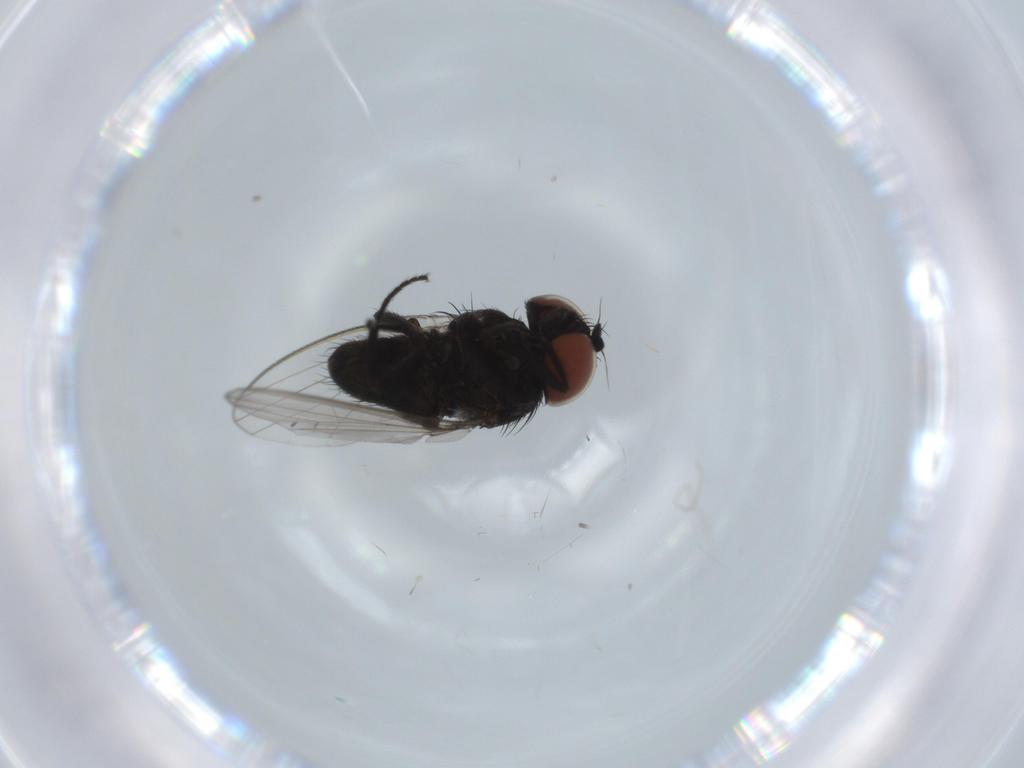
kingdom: Animalia
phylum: Arthropoda
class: Insecta
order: Diptera
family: Milichiidae
